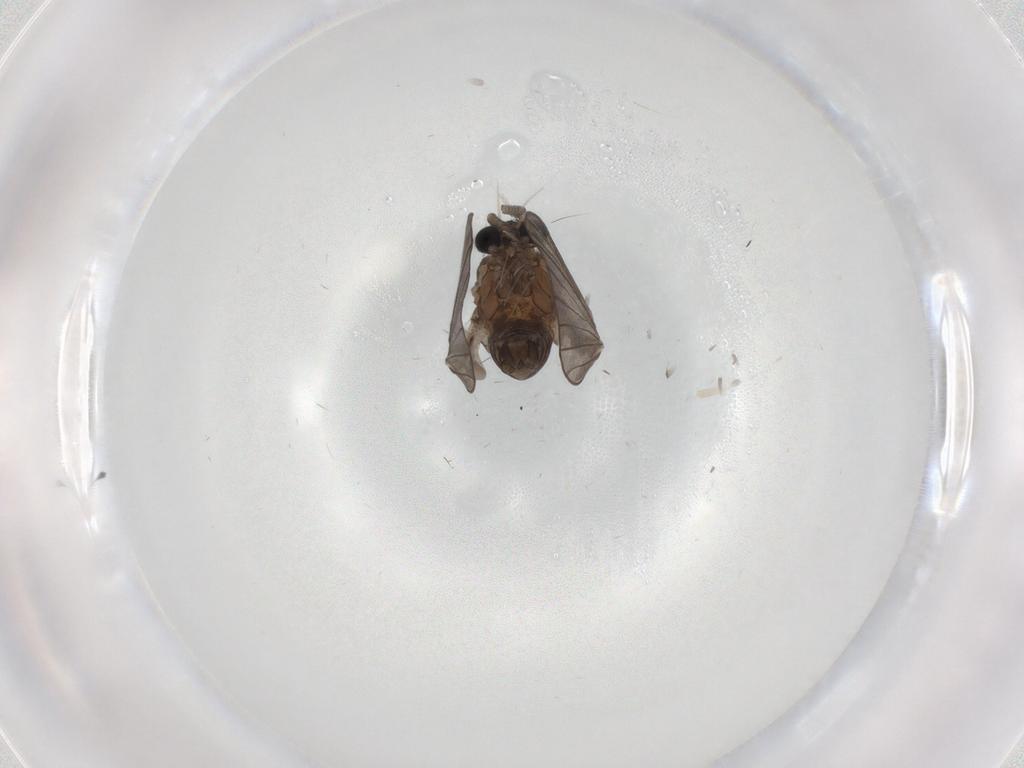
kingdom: Animalia
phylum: Arthropoda
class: Insecta
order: Diptera
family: Psychodidae
